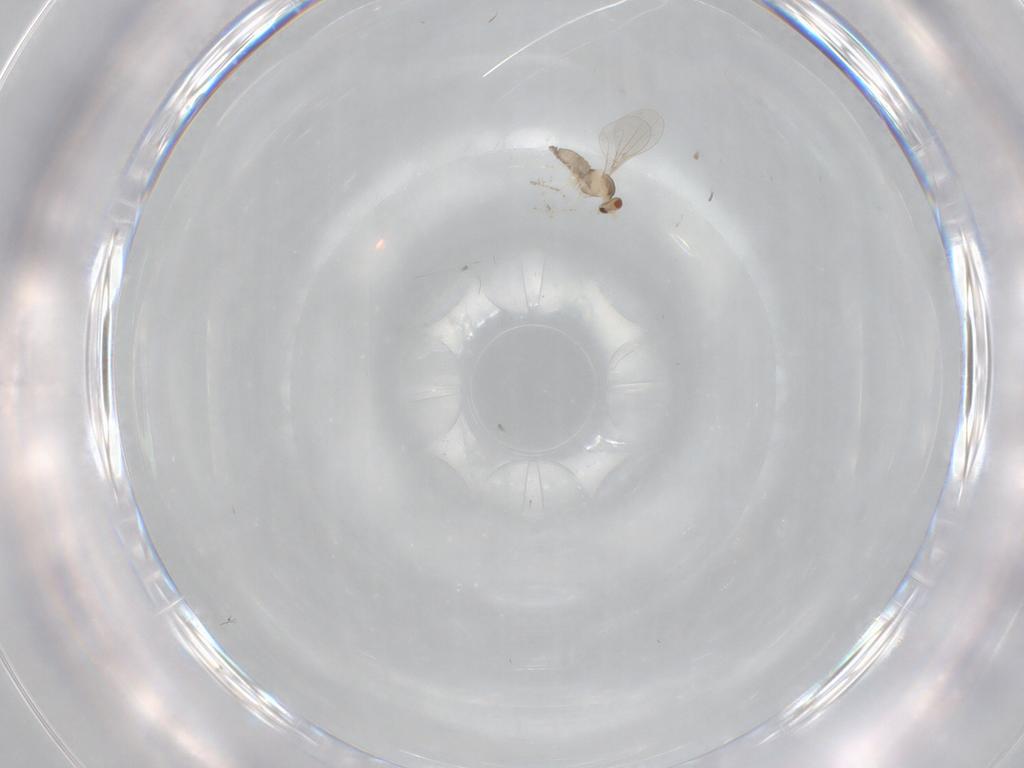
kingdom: Animalia
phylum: Arthropoda
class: Insecta
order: Diptera
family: Cecidomyiidae
